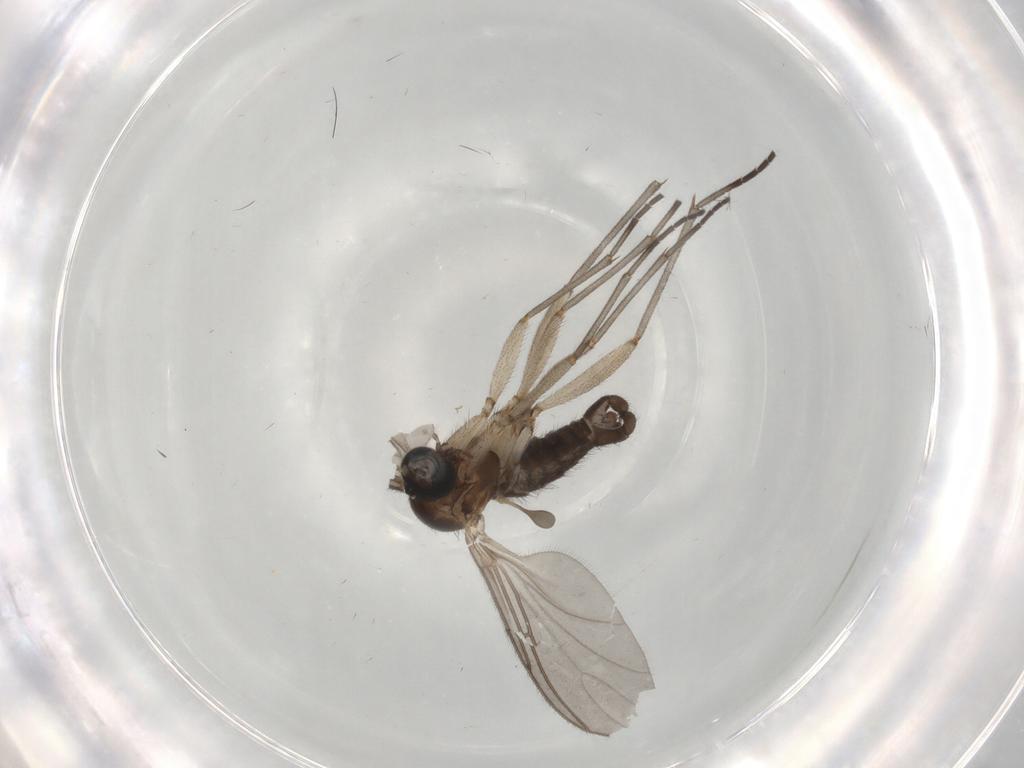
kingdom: Animalia
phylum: Arthropoda
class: Insecta
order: Diptera
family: Sciaridae
